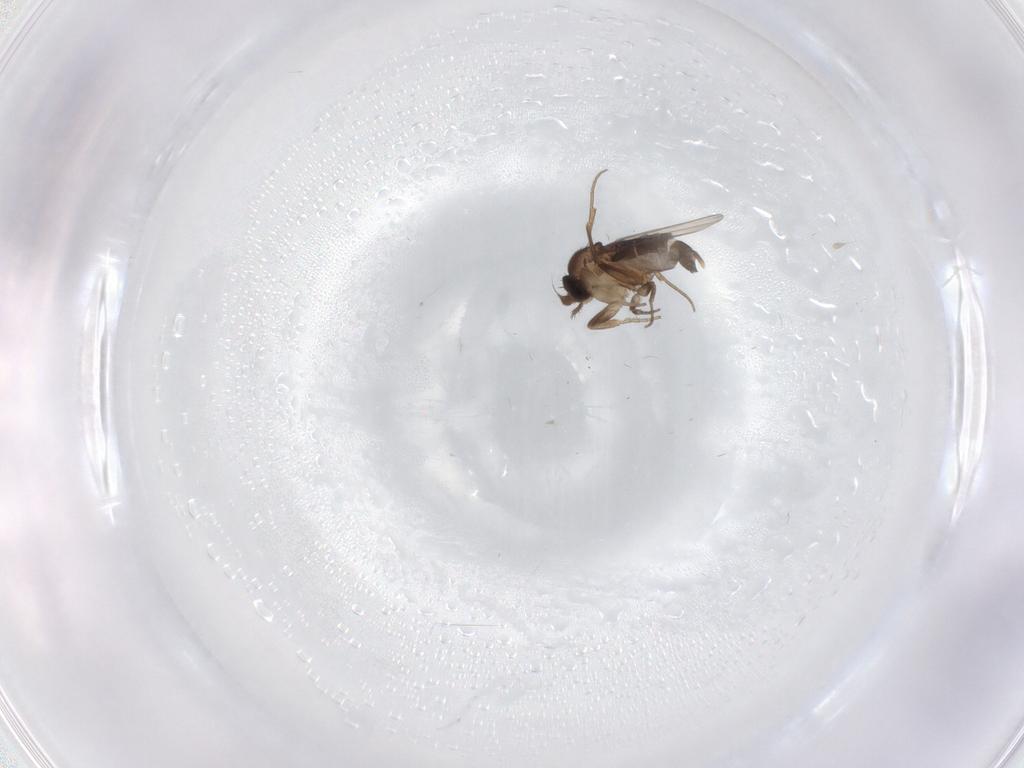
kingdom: Animalia
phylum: Arthropoda
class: Insecta
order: Diptera
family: Phoridae
